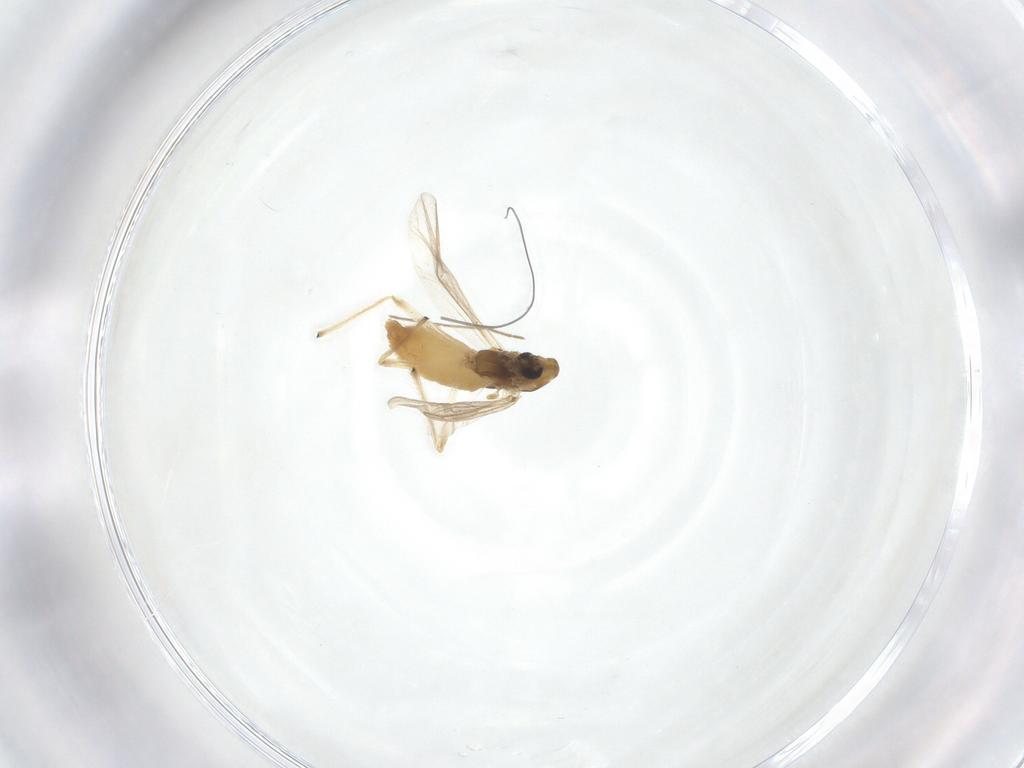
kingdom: Animalia
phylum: Arthropoda
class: Insecta
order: Diptera
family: Chironomidae
